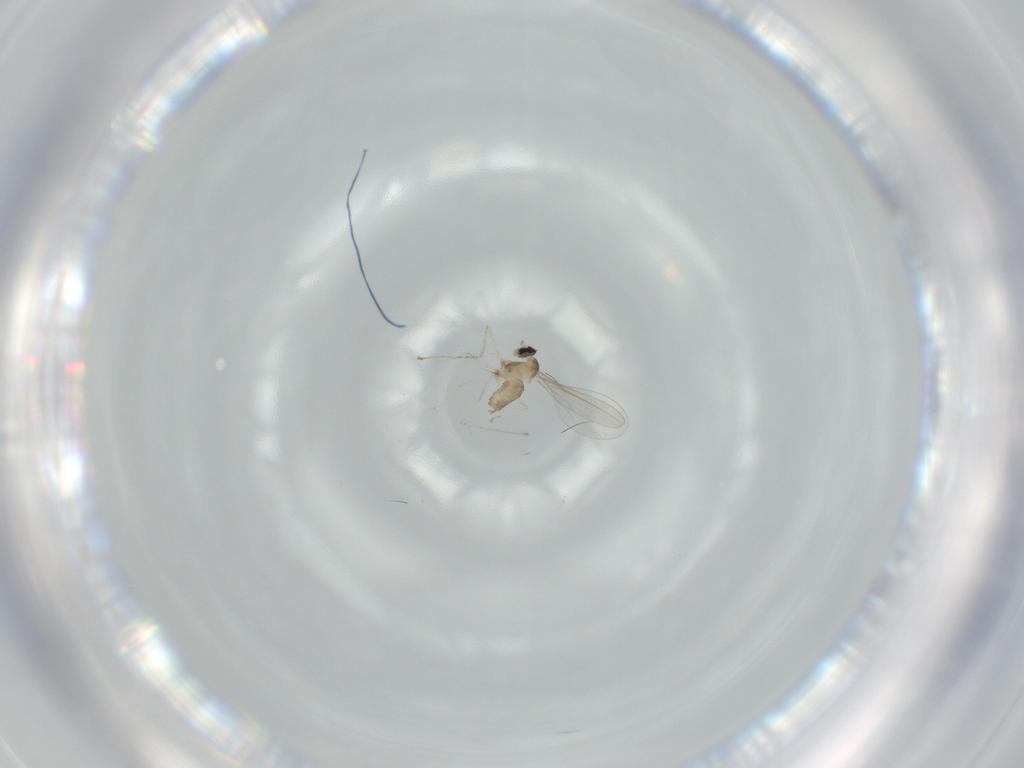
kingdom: Animalia
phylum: Arthropoda
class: Insecta
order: Diptera
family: Cecidomyiidae
